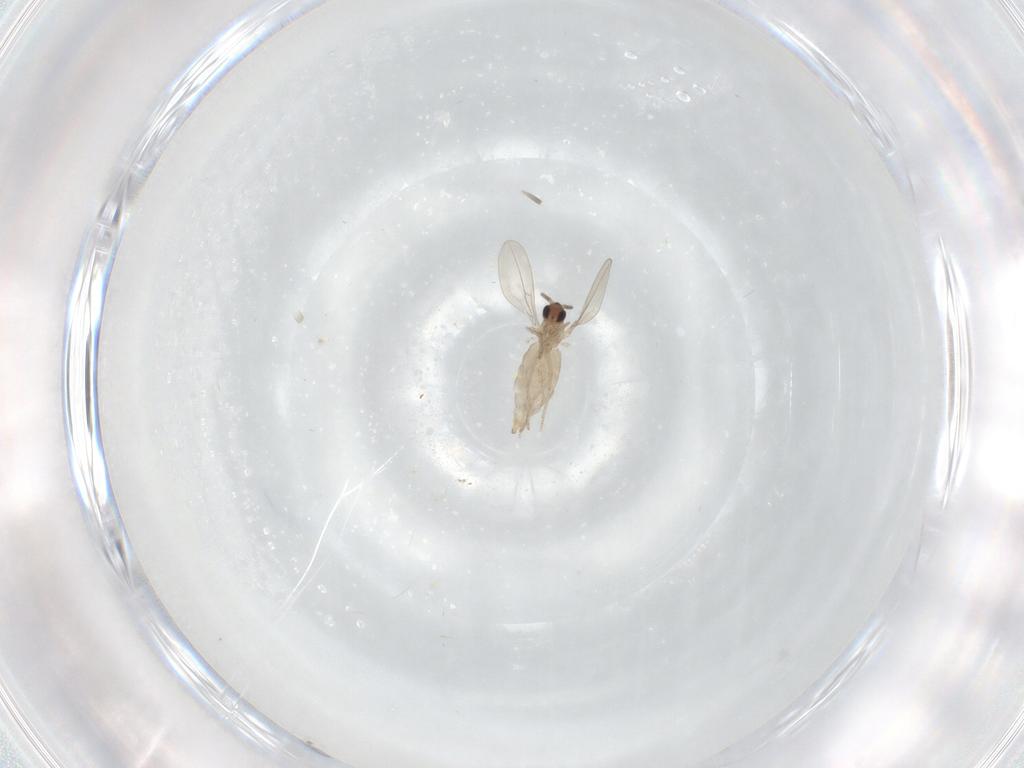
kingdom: Animalia
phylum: Arthropoda
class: Insecta
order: Diptera
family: Cecidomyiidae
